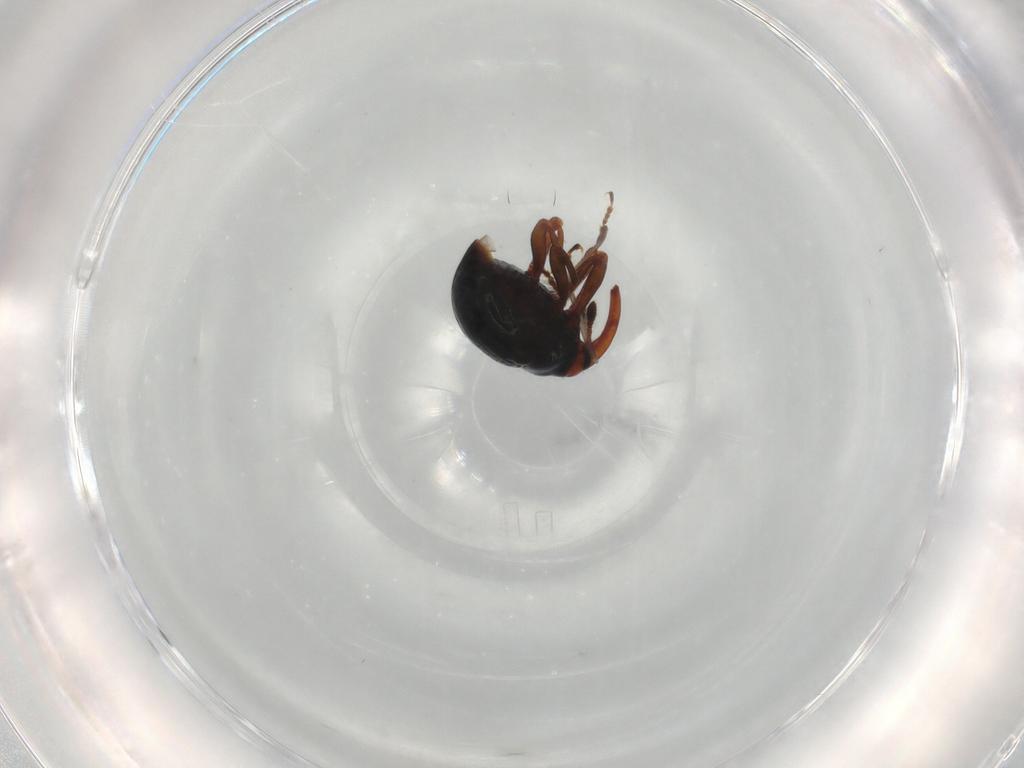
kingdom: Animalia
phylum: Arthropoda
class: Insecta
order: Coleoptera
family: Curculionidae
